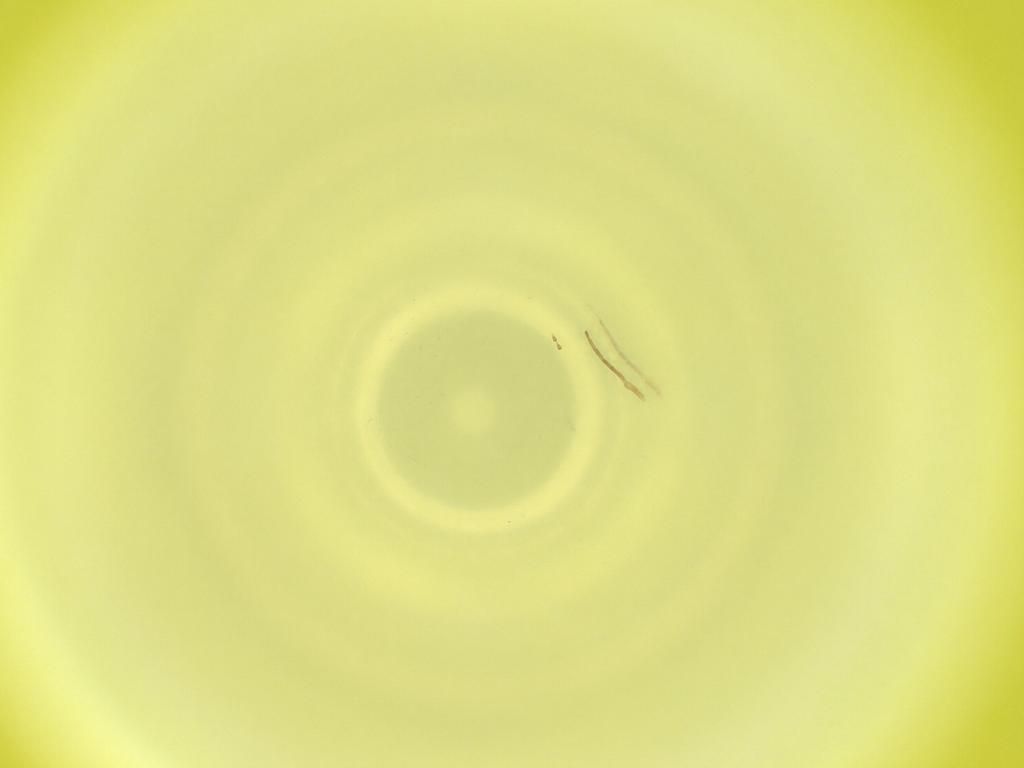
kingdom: Animalia
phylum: Arthropoda
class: Insecta
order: Diptera
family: Cecidomyiidae
